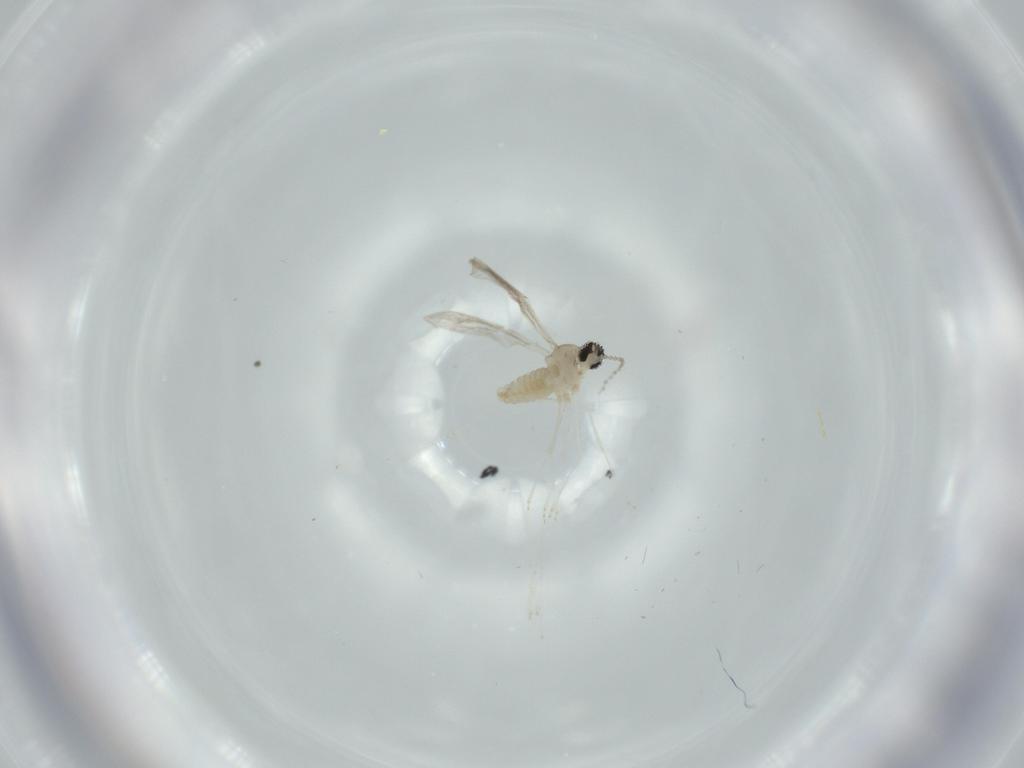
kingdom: Animalia
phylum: Arthropoda
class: Insecta
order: Diptera
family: Cecidomyiidae
